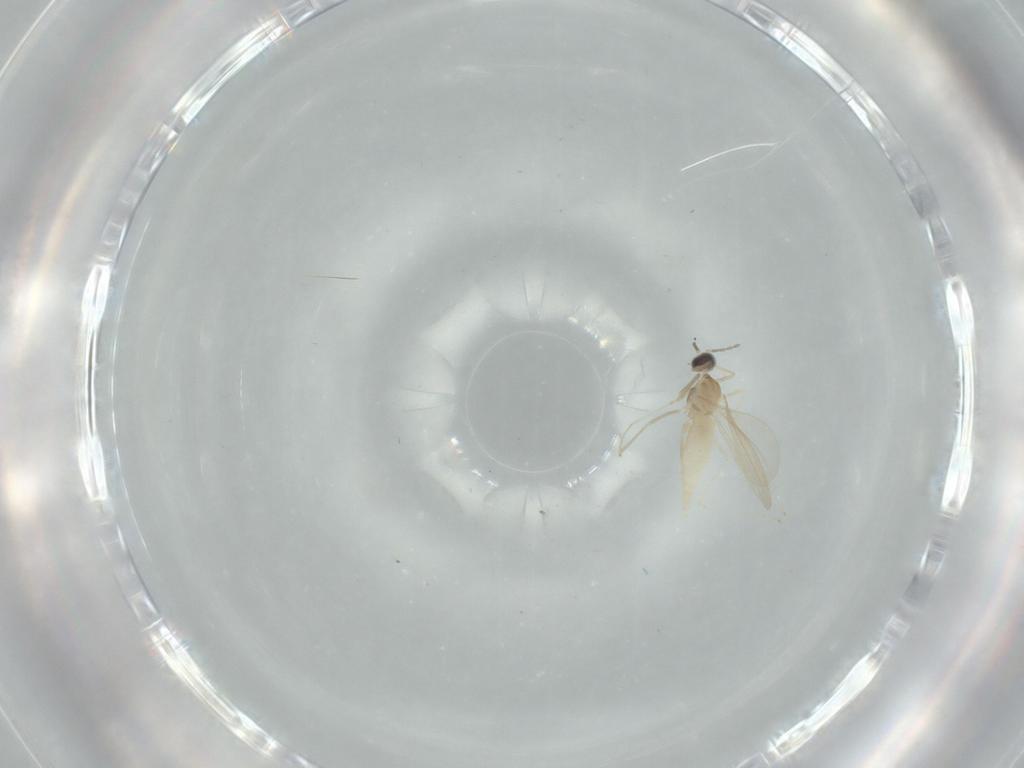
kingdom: Animalia
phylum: Arthropoda
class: Insecta
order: Diptera
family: Cecidomyiidae
